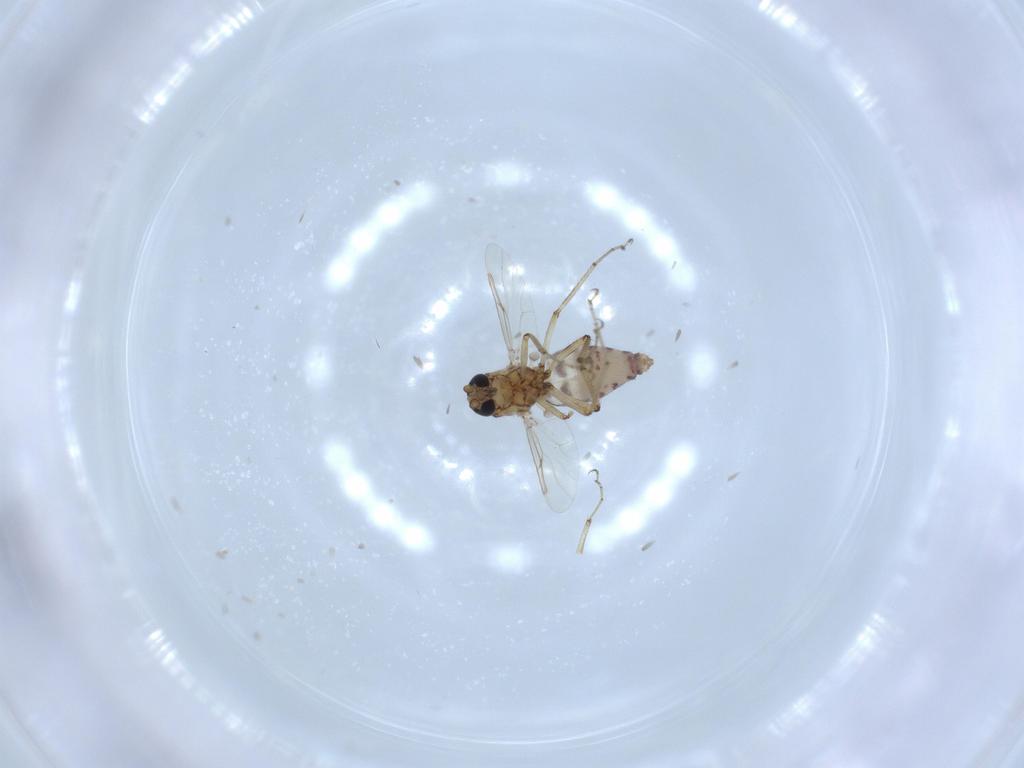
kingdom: Animalia
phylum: Arthropoda
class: Insecta
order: Diptera
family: Ceratopogonidae
